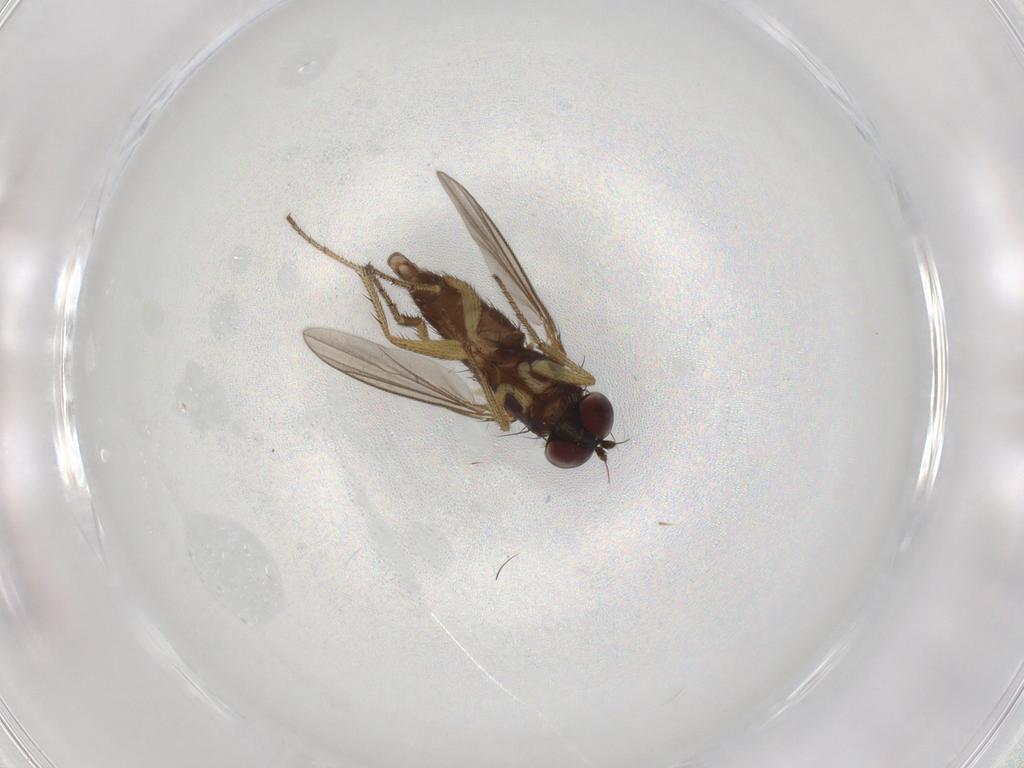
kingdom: Animalia
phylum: Arthropoda
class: Insecta
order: Diptera
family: Dolichopodidae
